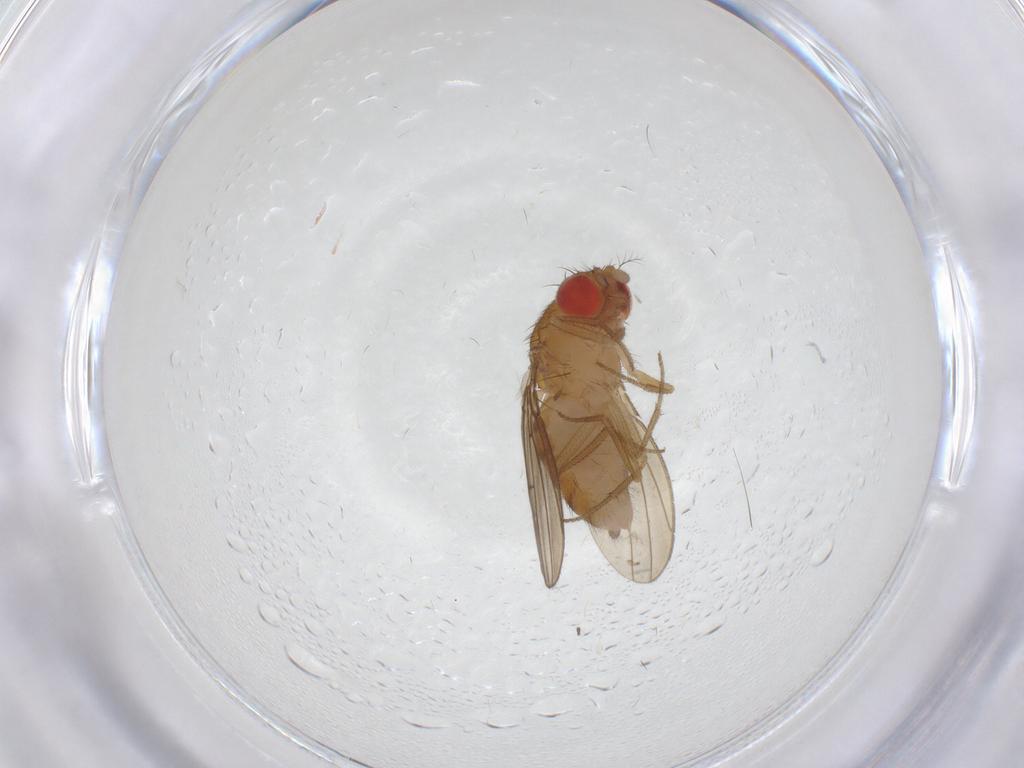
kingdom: Animalia
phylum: Arthropoda
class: Insecta
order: Diptera
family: Drosophilidae
